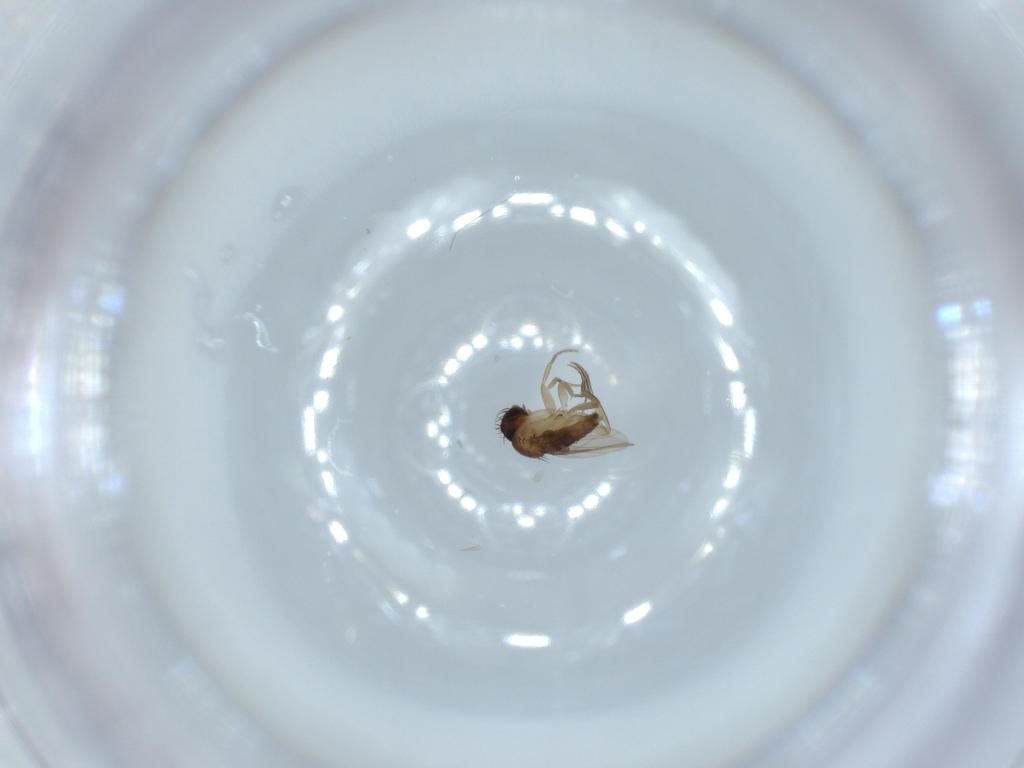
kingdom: Animalia
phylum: Arthropoda
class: Insecta
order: Diptera
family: Phoridae
